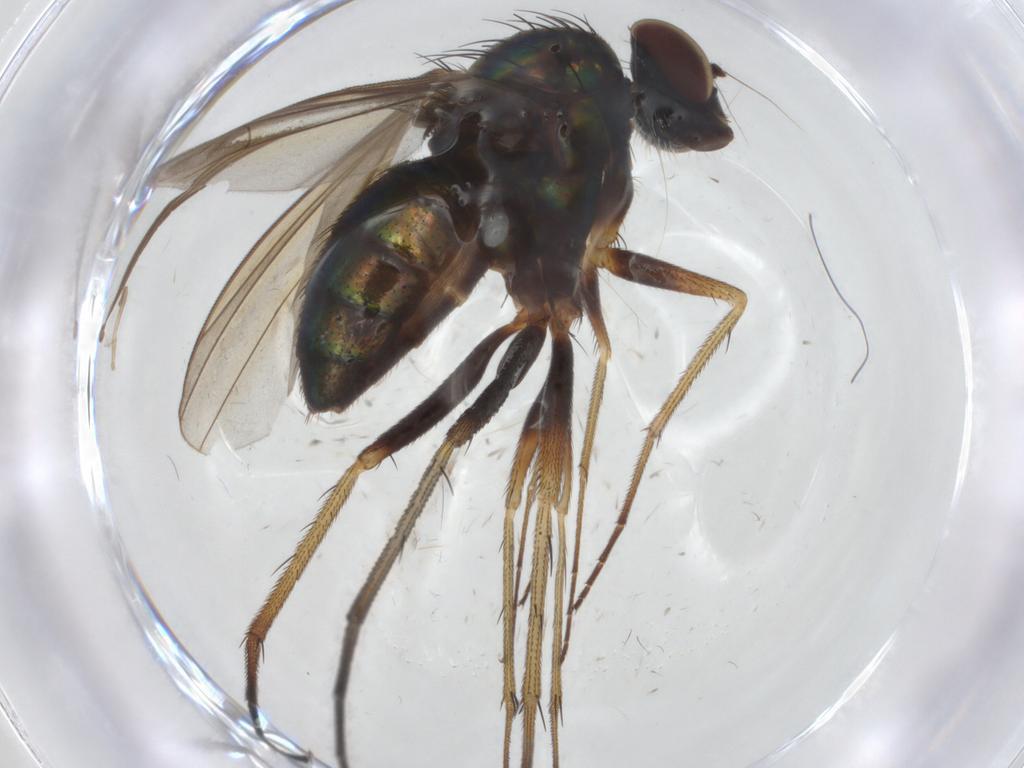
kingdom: Animalia
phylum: Arthropoda
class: Insecta
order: Diptera
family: Dolichopodidae
